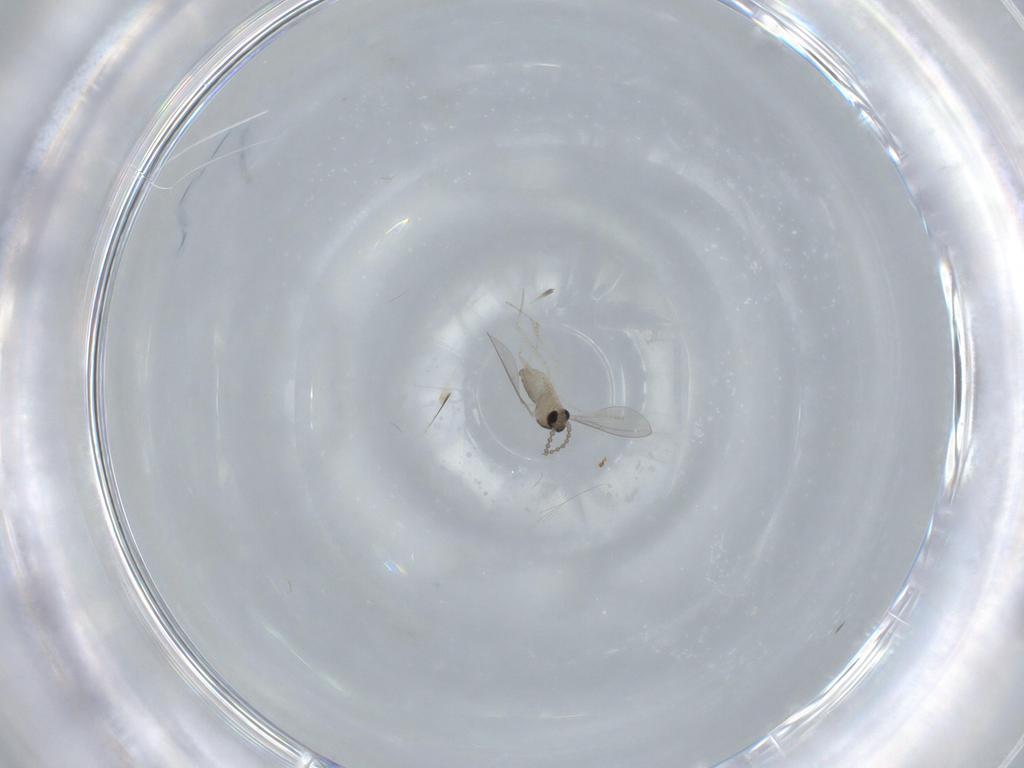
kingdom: Animalia
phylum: Arthropoda
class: Insecta
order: Diptera
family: Cecidomyiidae
